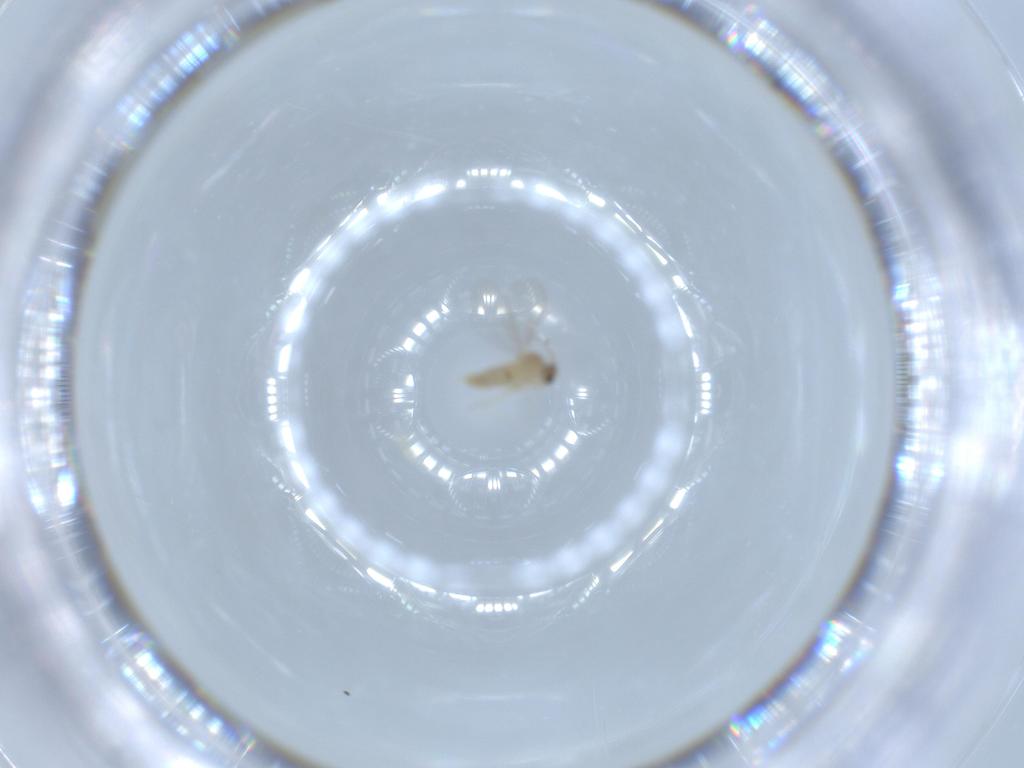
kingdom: Animalia
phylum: Arthropoda
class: Insecta
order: Diptera
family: Cecidomyiidae
